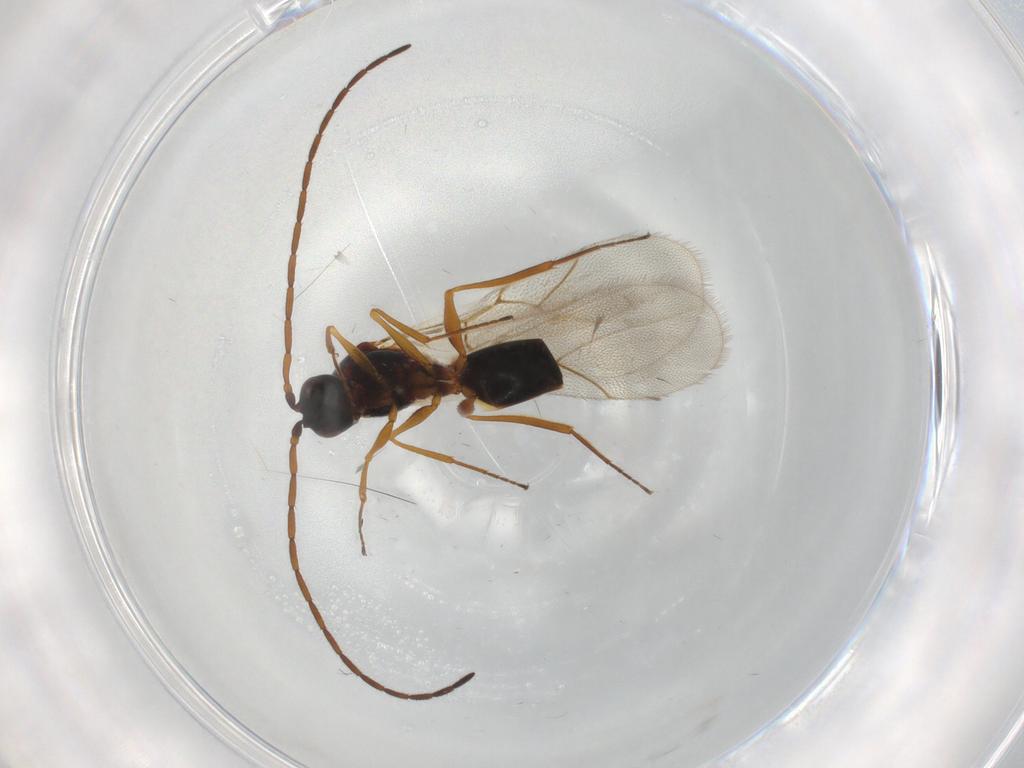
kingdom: Animalia
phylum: Arthropoda
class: Insecta
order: Hymenoptera
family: Figitidae
